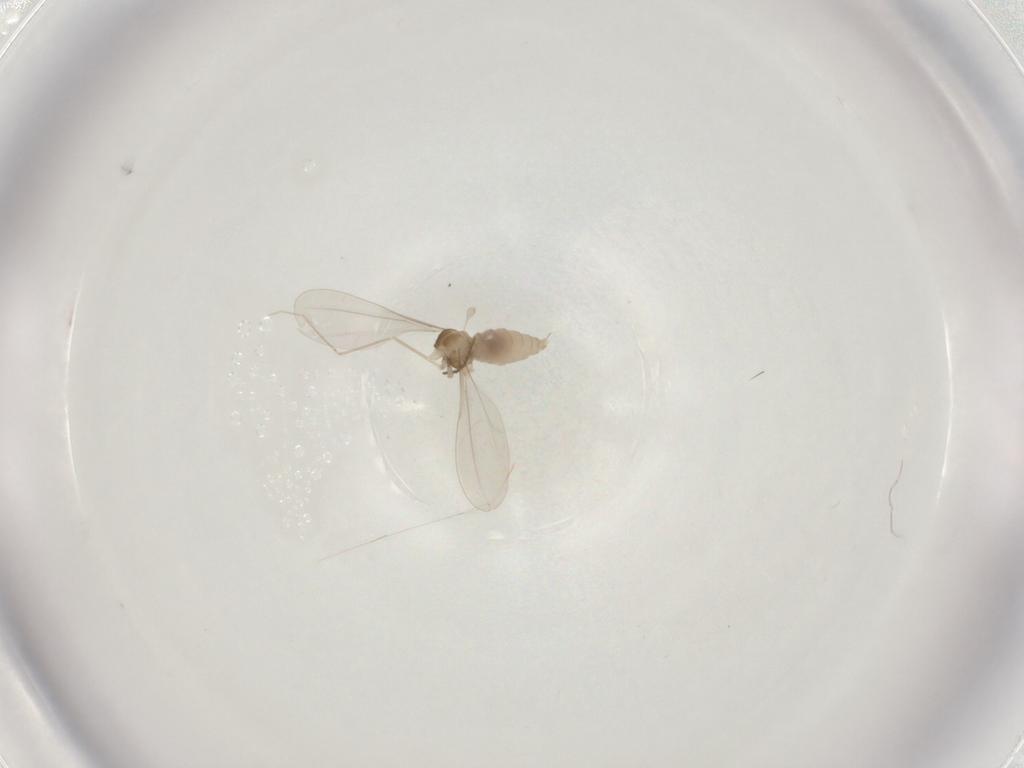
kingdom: Animalia
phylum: Arthropoda
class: Insecta
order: Diptera
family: Cecidomyiidae
